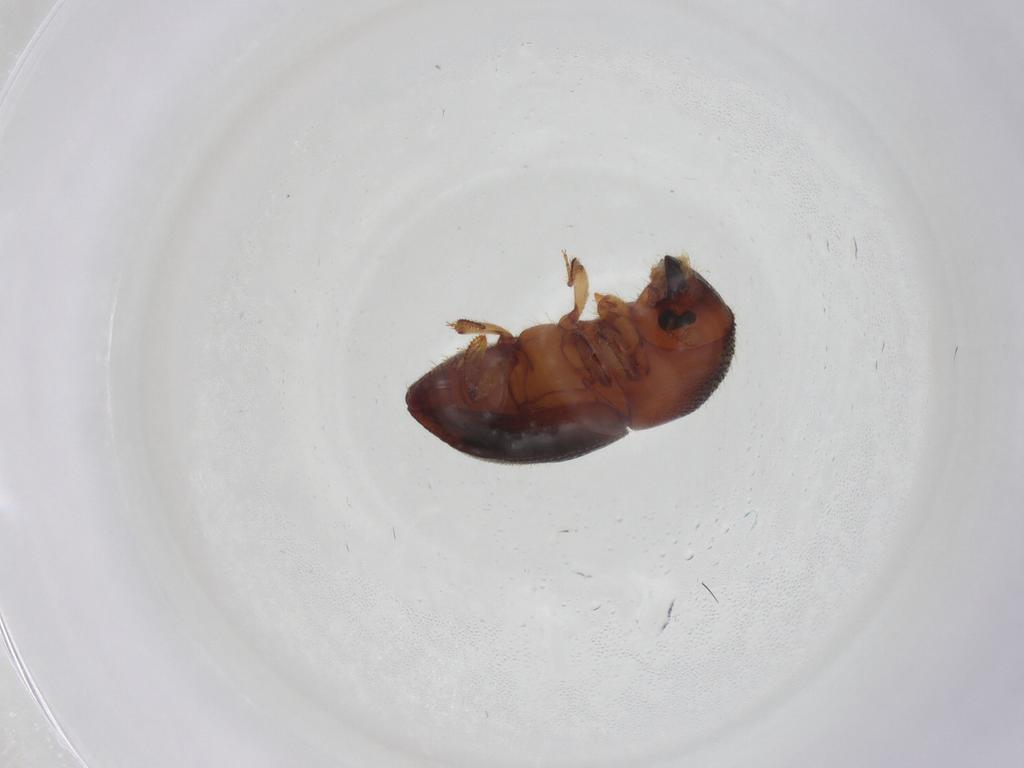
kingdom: Animalia
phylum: Arthropoda
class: Insecta
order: Coleoptera
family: Curculionidae
